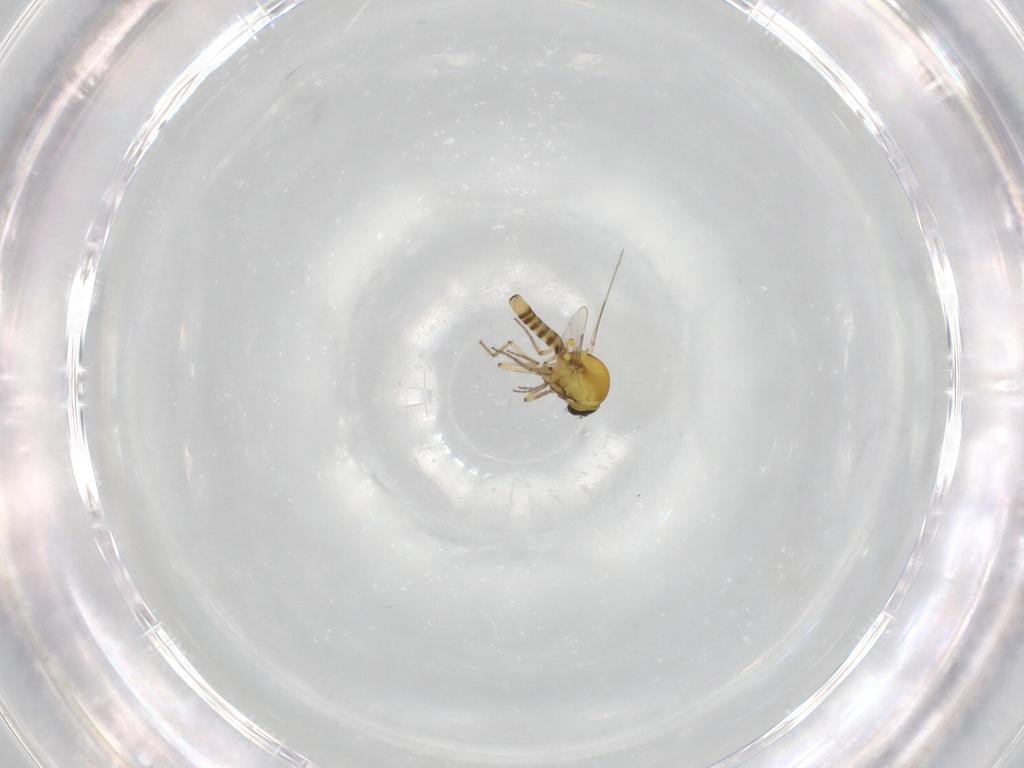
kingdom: Animalia
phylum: Arthropoda
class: Insecta
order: Diptera
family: Ceratopogonidae
